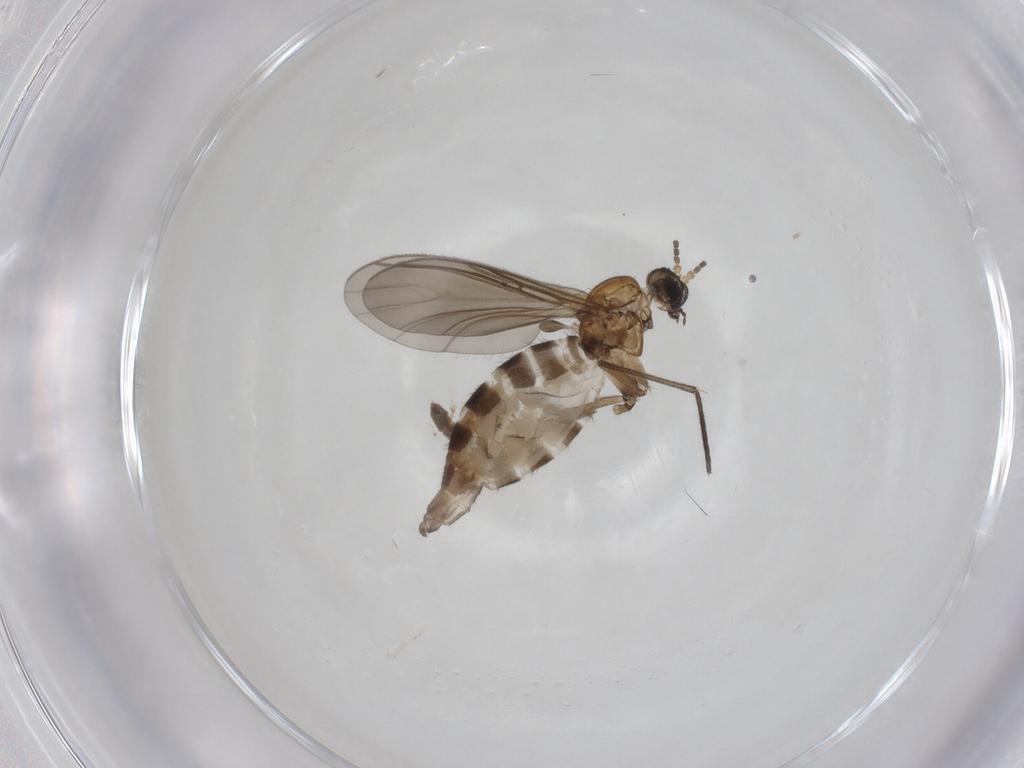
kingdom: Animalia
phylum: Arthropoda
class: Insecta
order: Diptera
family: Sciaridae
